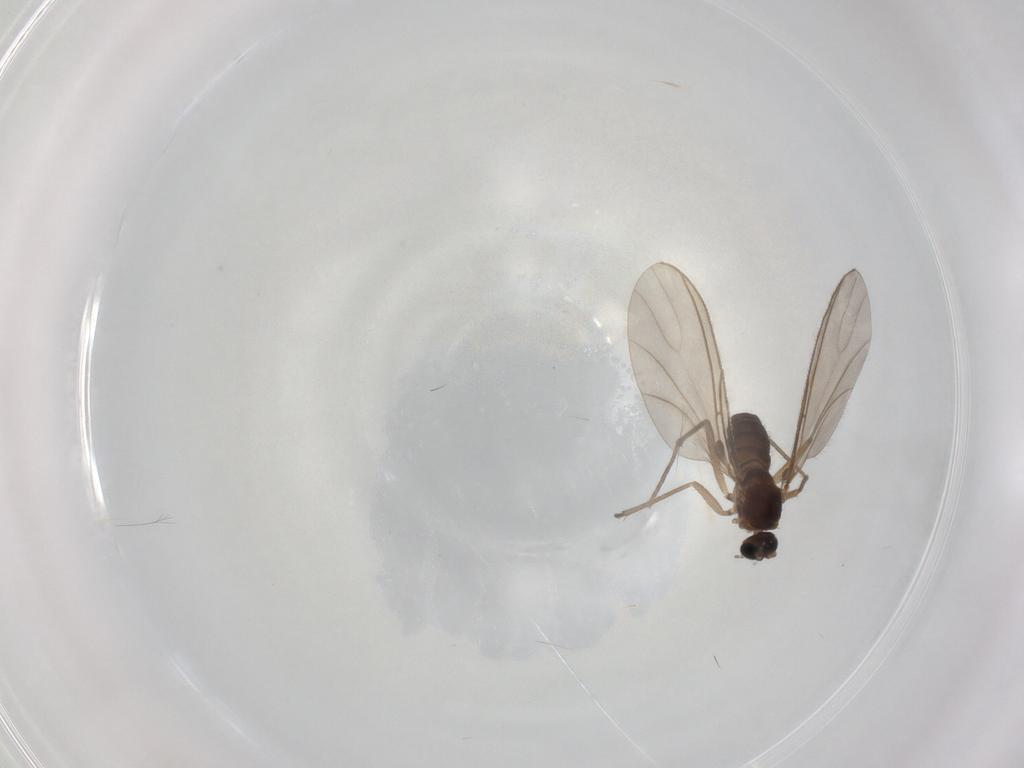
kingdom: Animalia
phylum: Arthropoda
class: Insecta
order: Diptera
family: Sciaridae
